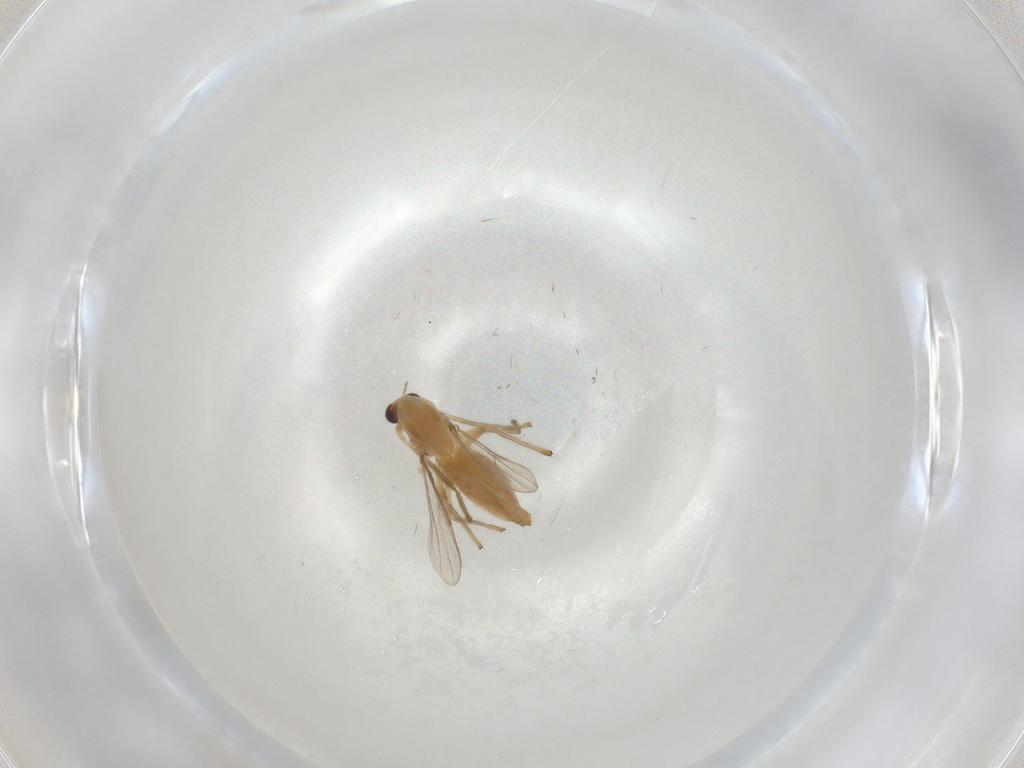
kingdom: Animalia
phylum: Arthropoda
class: Insecta
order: Diptera
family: Chironomidae
